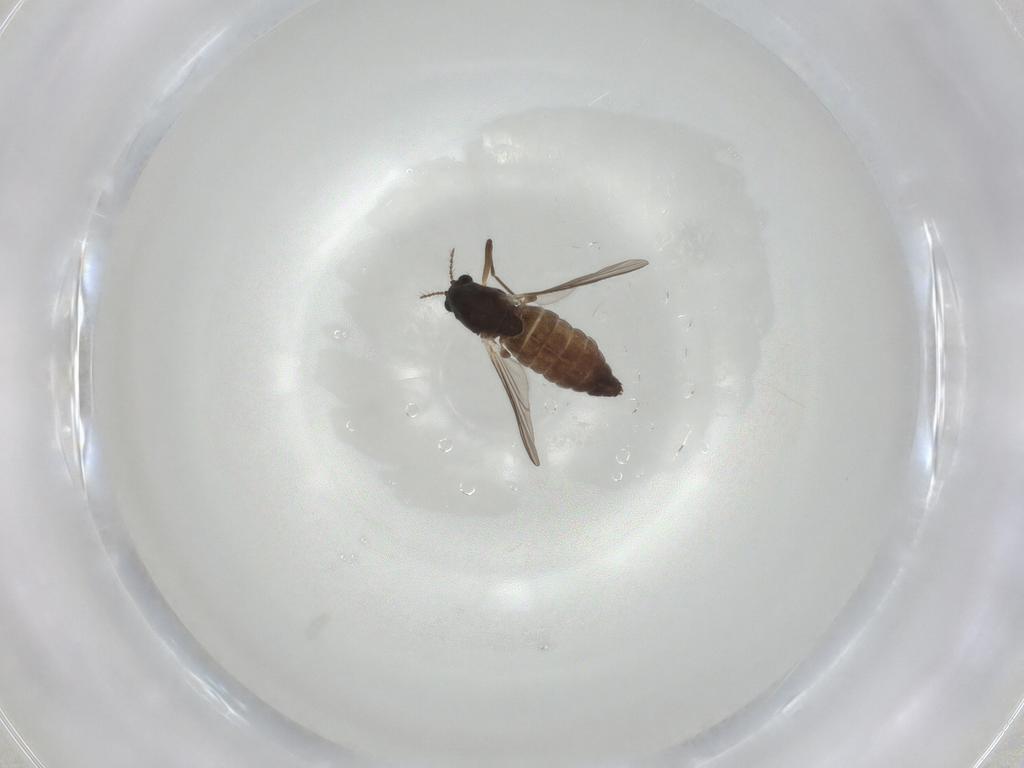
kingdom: Animalia
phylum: Arthropoda
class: Insecta
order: Diptera
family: Chironomidae
